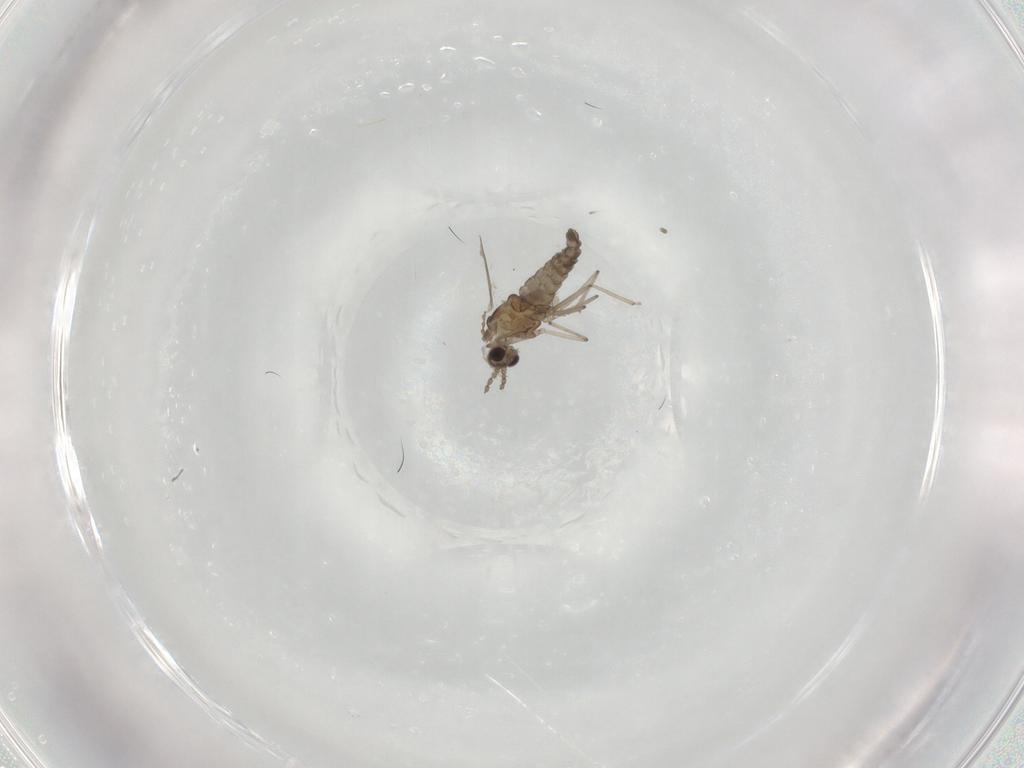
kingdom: Animalia
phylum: Arthropoda
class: Insecta
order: Diptera
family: Cecidomyiidae
